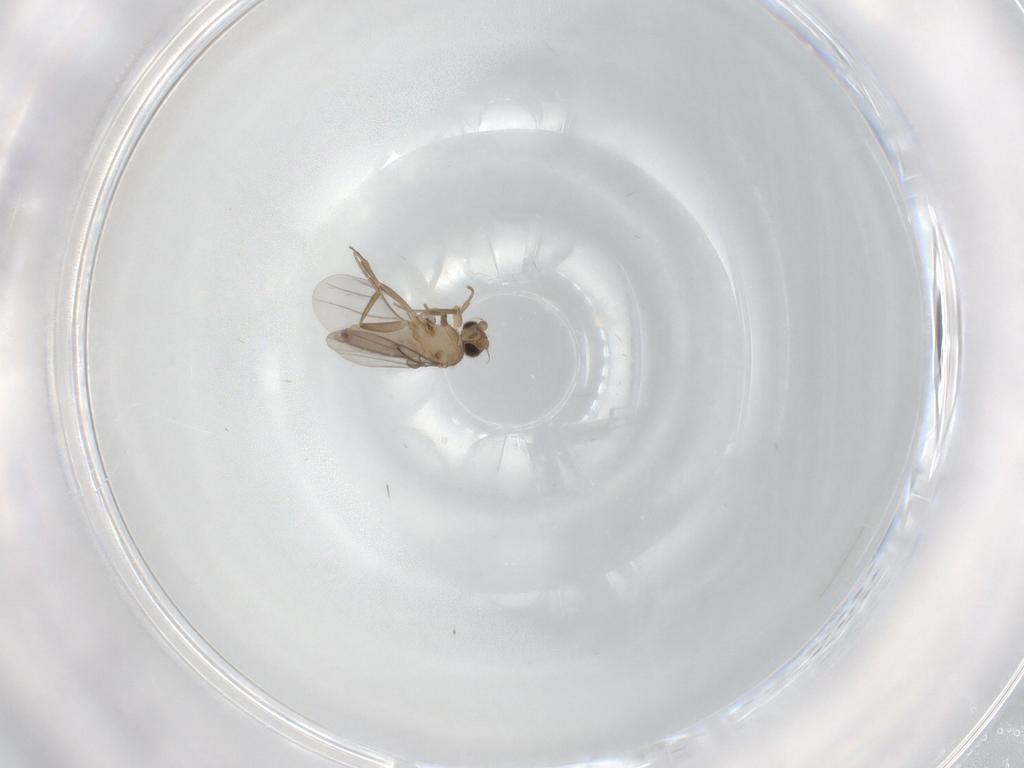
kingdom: Animalia
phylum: Arthropoda
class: Insecta
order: Diptera
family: Cecidomyiidae
